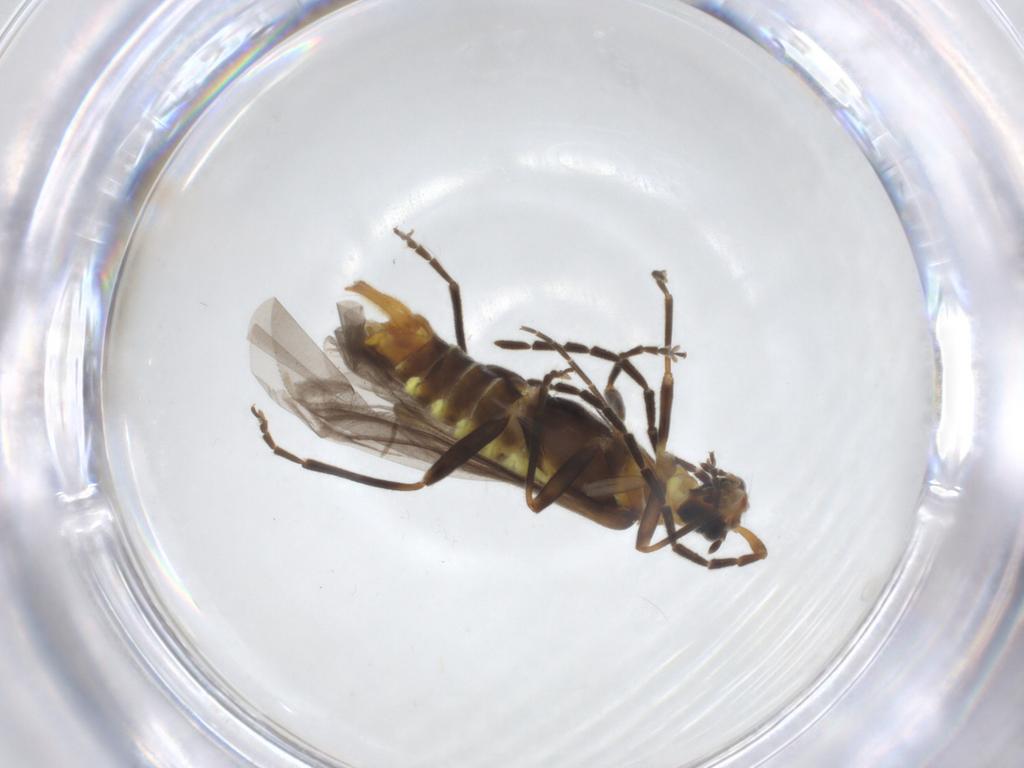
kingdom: Animalia
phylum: Arthropoda
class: Insecta
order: Coleoptera
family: Cantharidae
